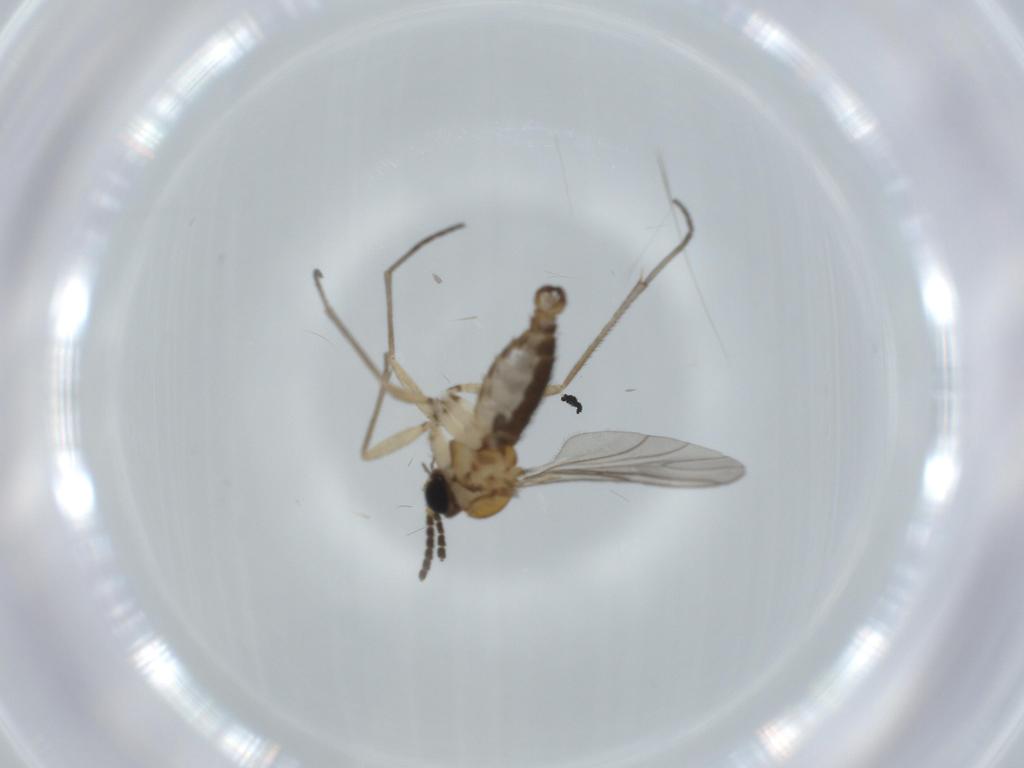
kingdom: Animalia
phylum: Arthropoda
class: Insecta
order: Diptera
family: Sciaridae
